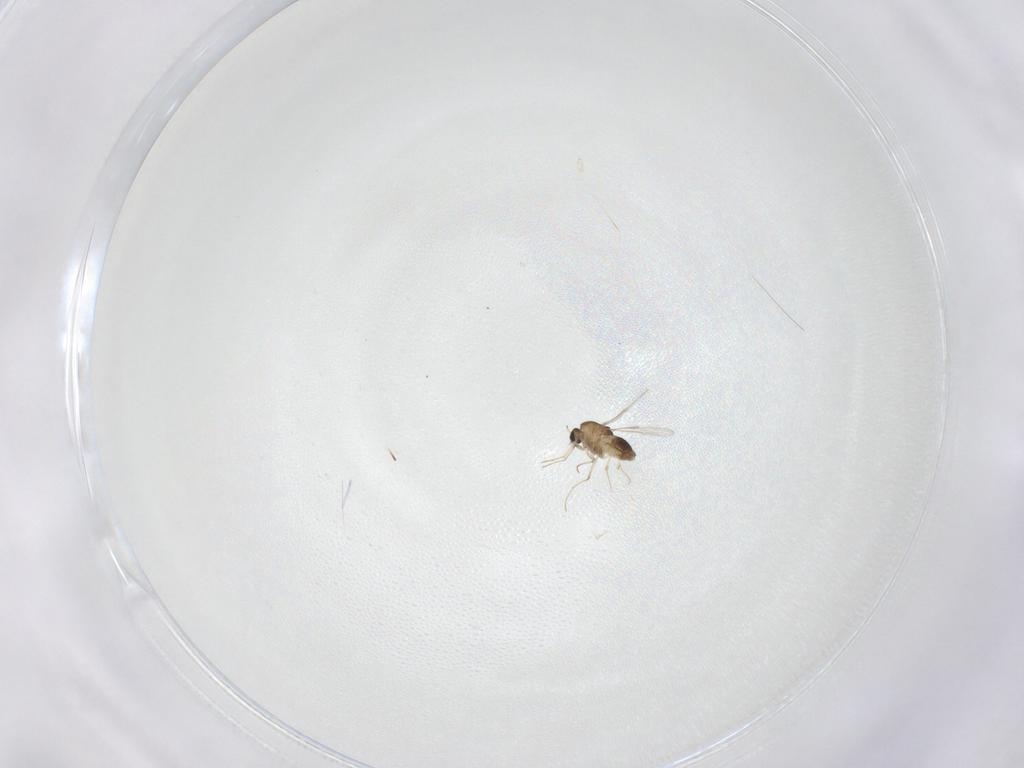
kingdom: Animalia
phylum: Arthropoda
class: Insecta
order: Diptera
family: Chironomidae
